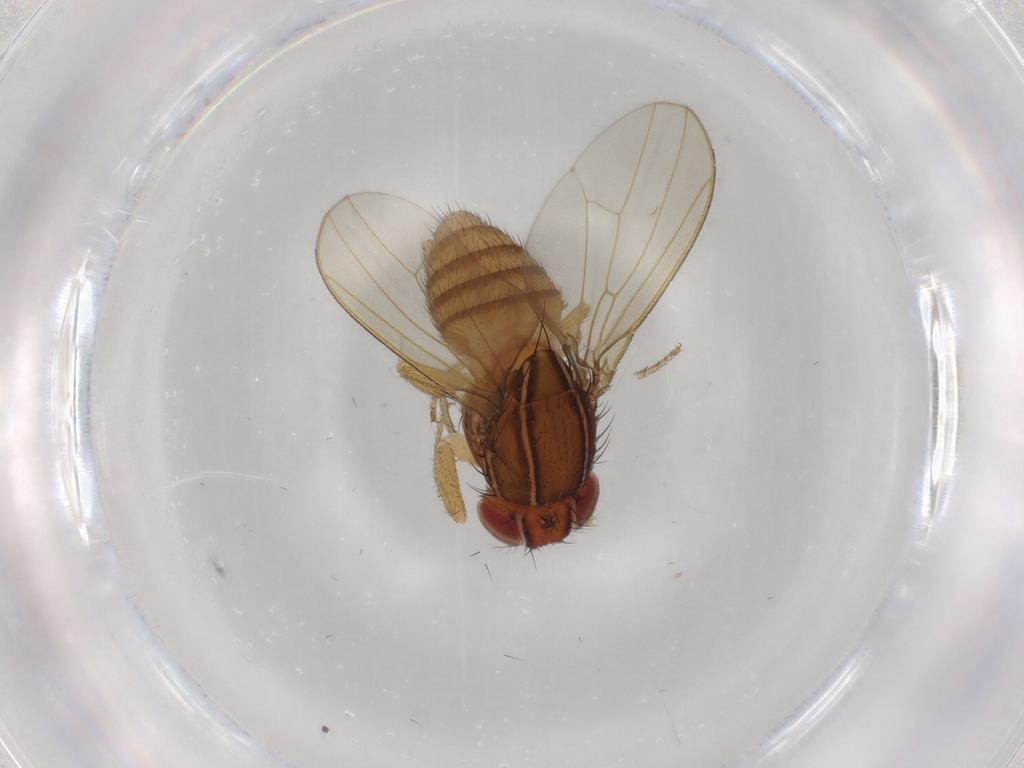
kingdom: Animalia
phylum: Arthropoda
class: Insecta
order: Diptera
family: Drosophilidae
